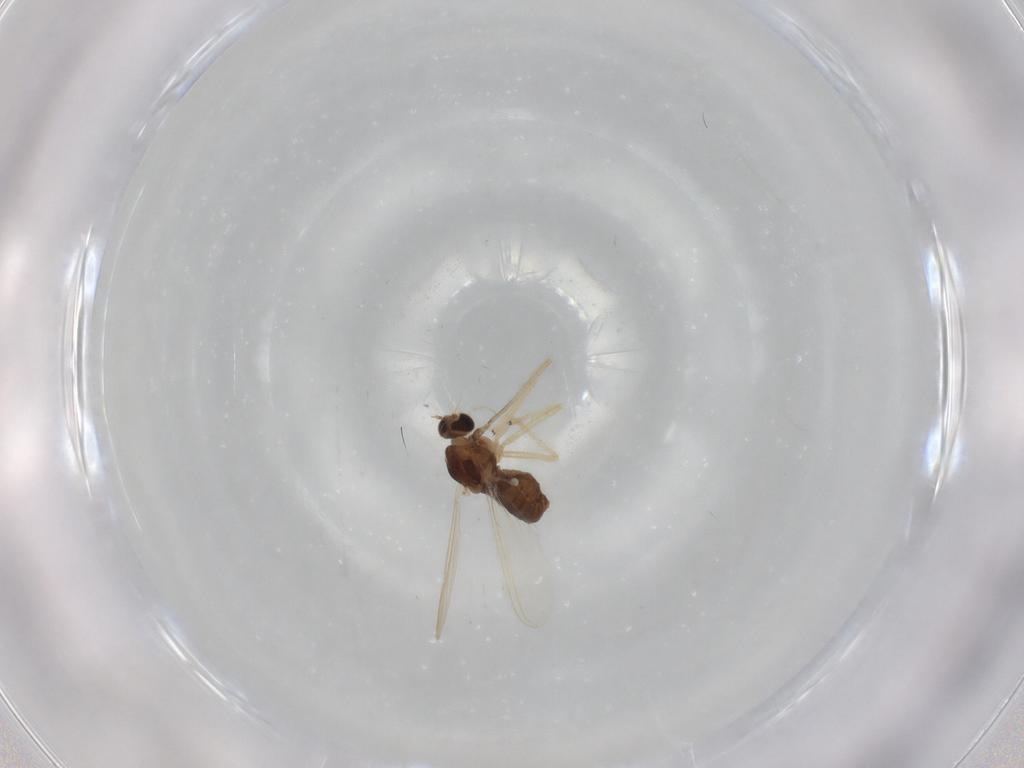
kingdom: Animalia
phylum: Arthropoda
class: Insecta
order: Diptera
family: Chironomidae
